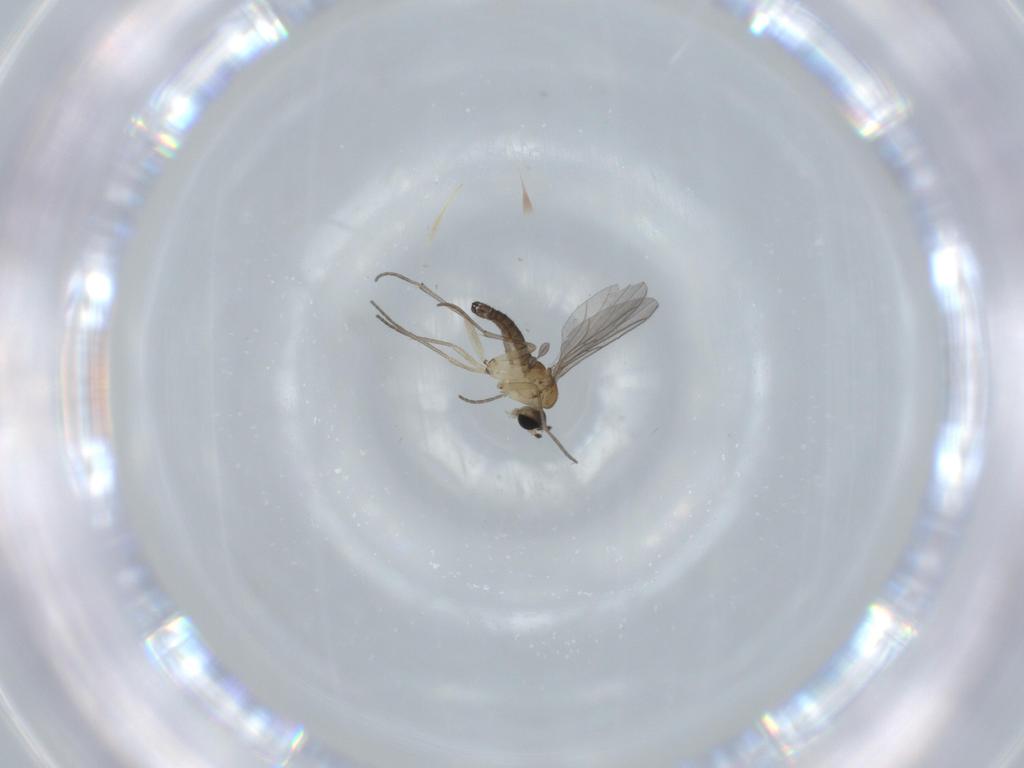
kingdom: Animalia
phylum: Arthropoda
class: Insecta
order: Diptera
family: Sciaridae
